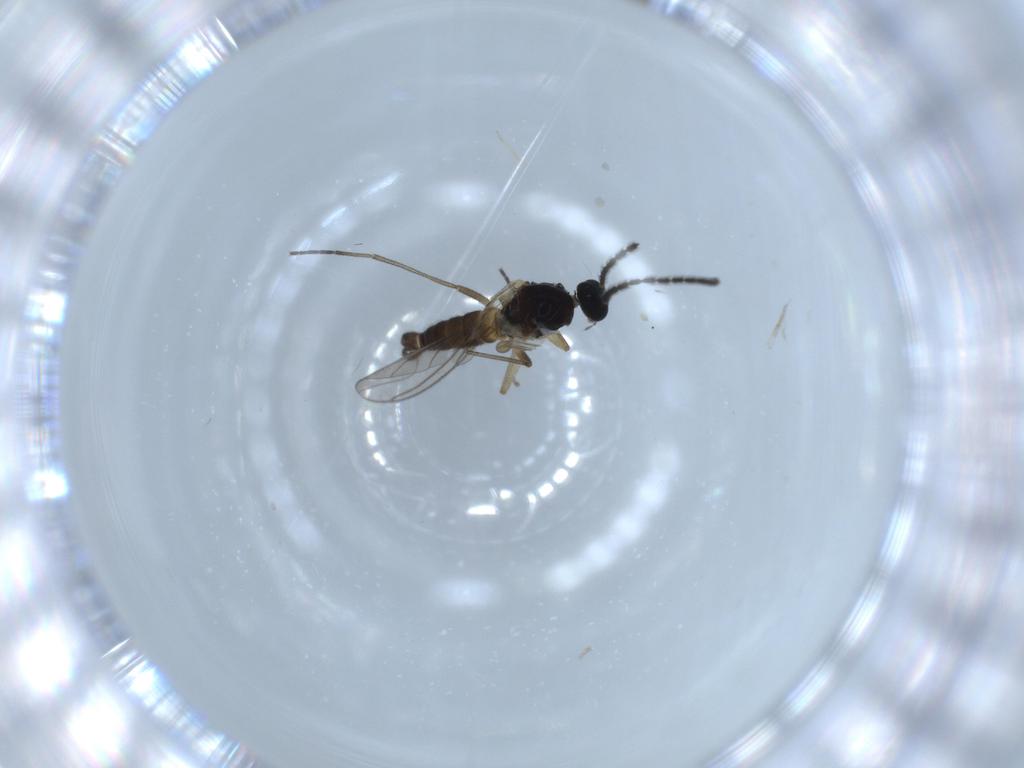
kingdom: Animalia
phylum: Arthropoda
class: Insecta
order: Diptera
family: Sciaridae
